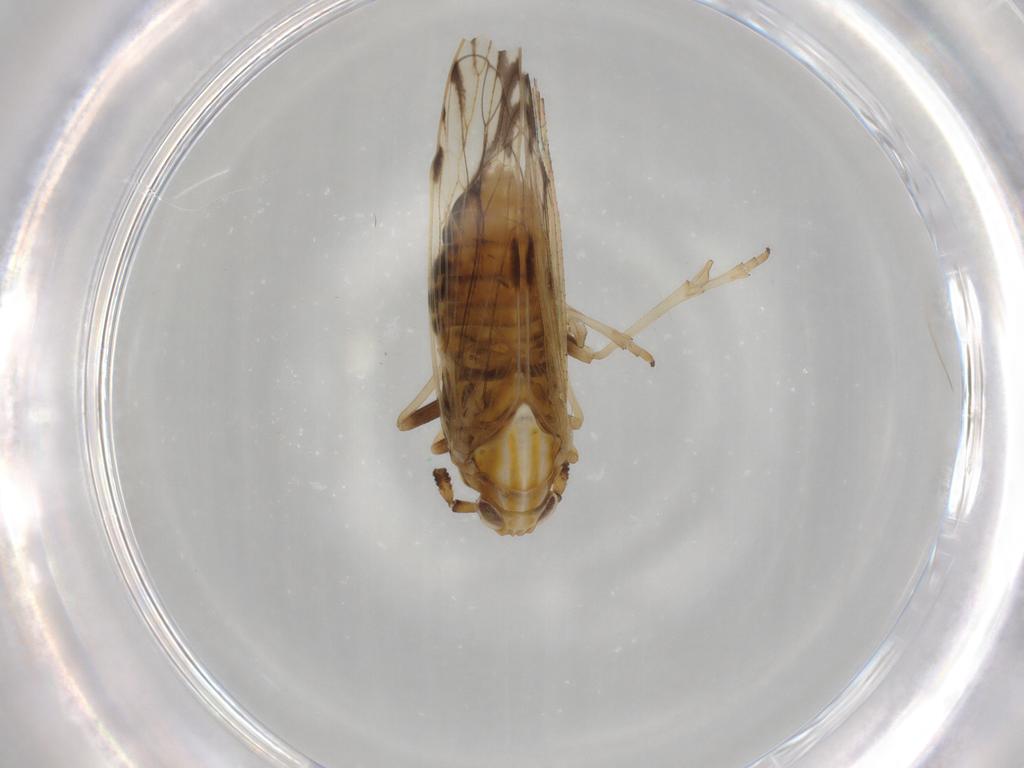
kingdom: Animalia
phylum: Arthropoda
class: Insecta
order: Hemiptera
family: Delphacidae
